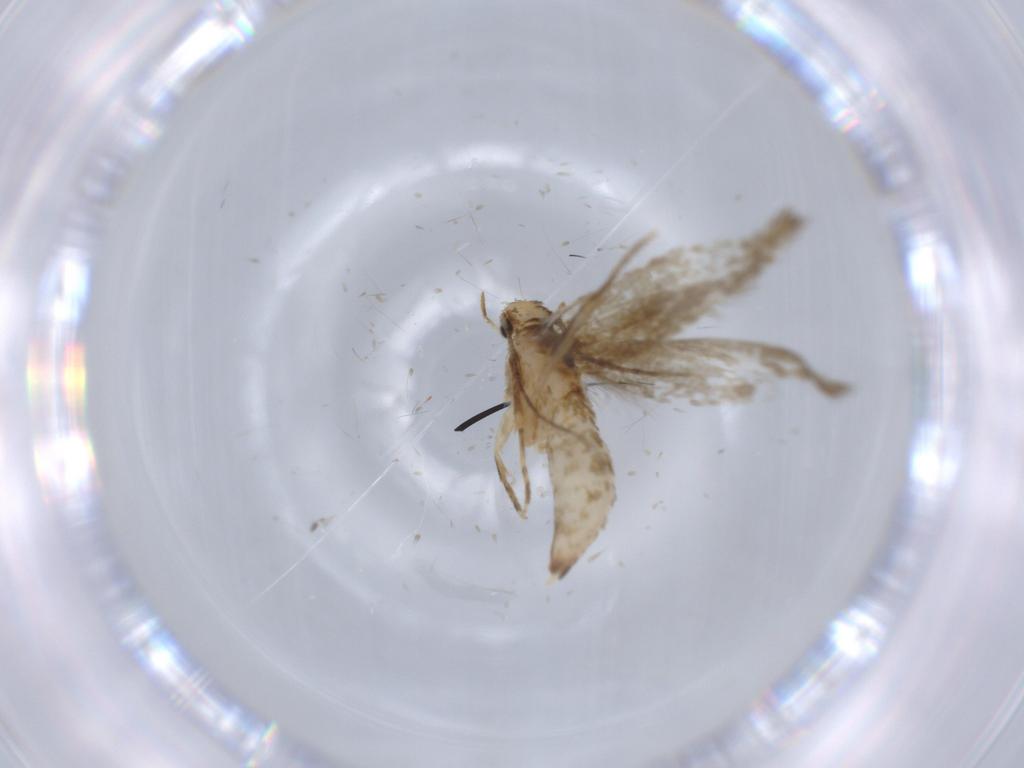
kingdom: Animalia
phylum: Arthropoda
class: Insecta
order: Lepidoptera
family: Tineidae
